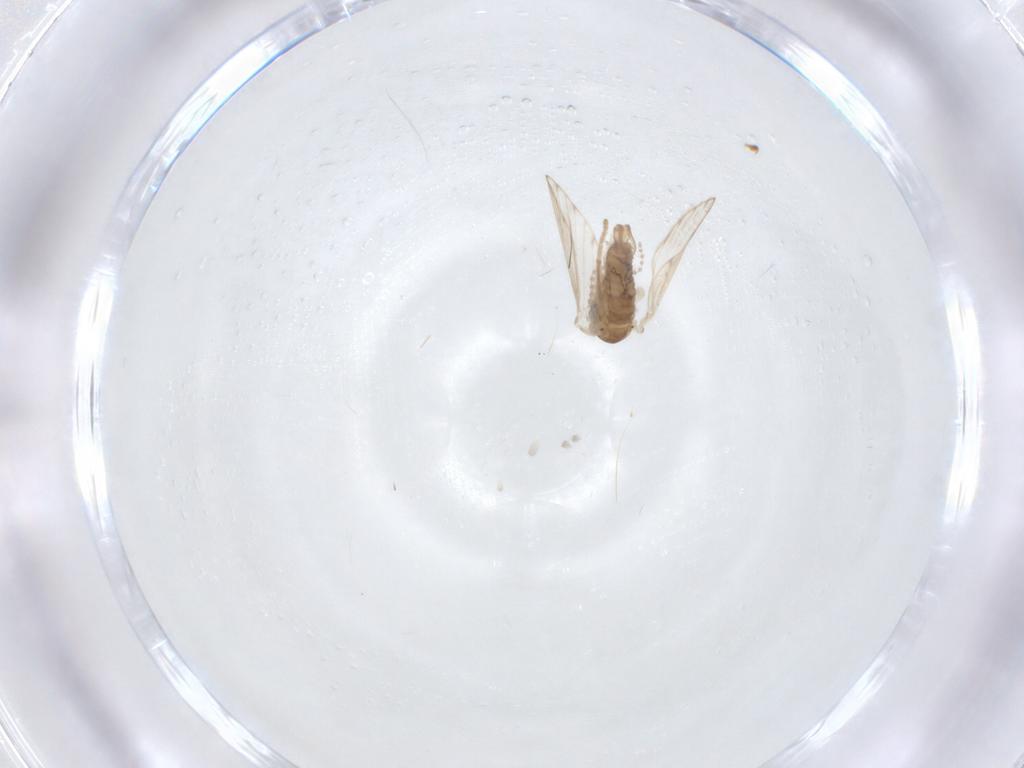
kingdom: Animalia
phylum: Arthropoda
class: Insecta
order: Diptera
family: Psychodidae
